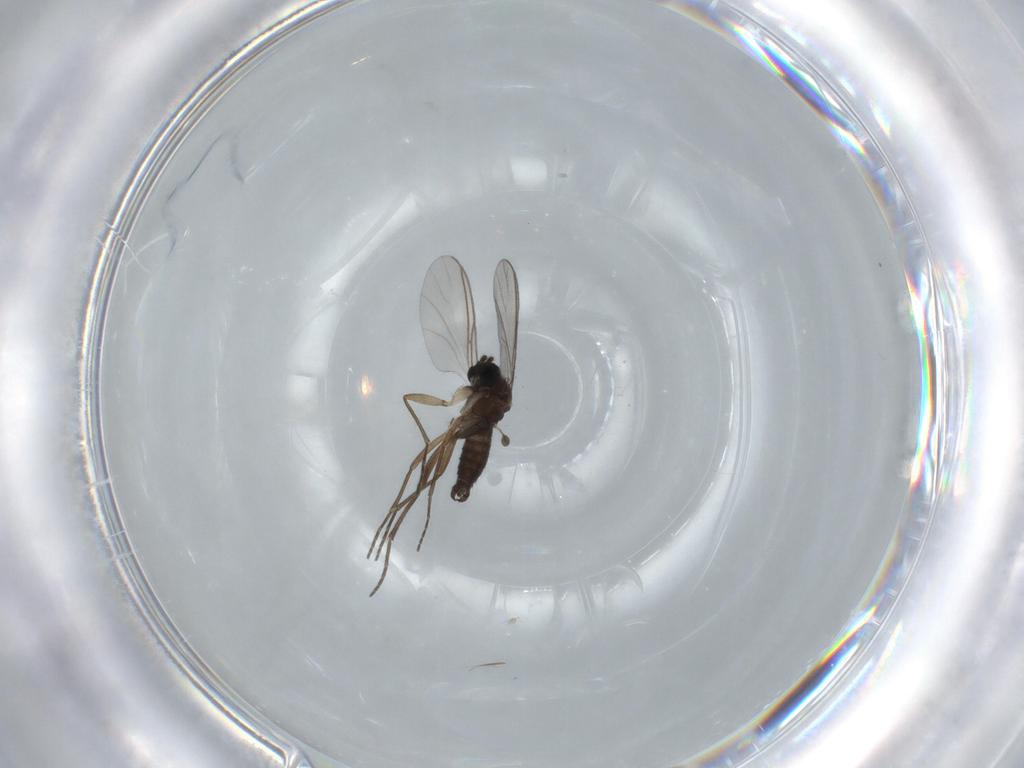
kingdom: Animalia
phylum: Arthropoda
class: Insecta
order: Diptera
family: Sciaridae
